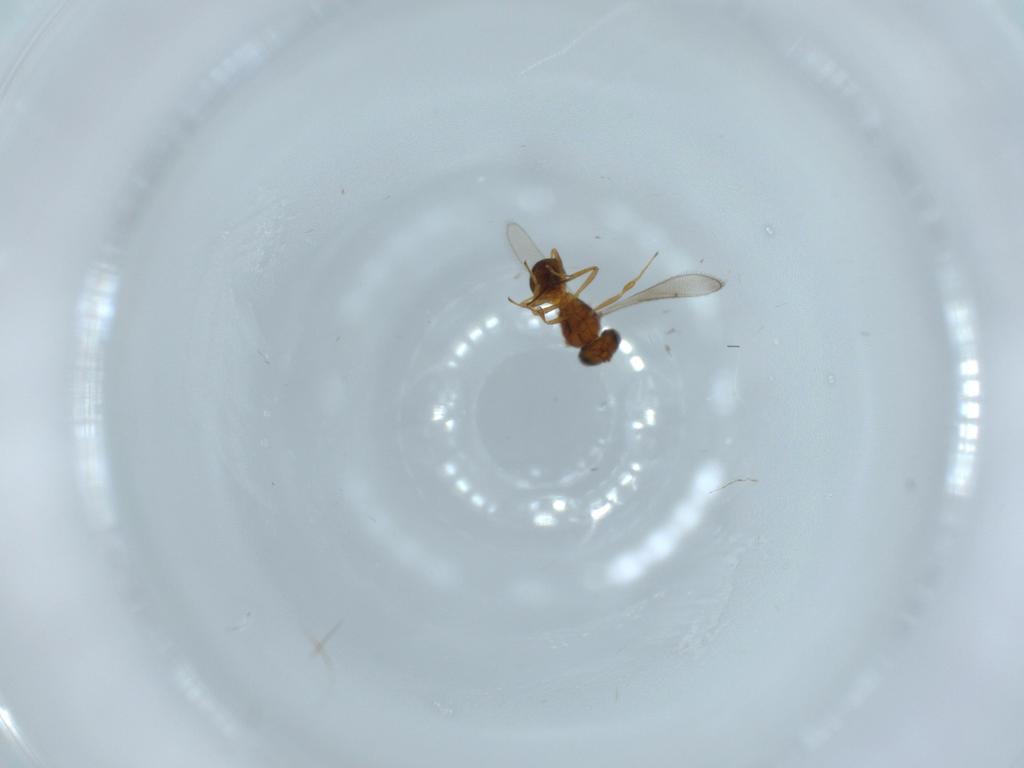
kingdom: Animalia
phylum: Arthropoda
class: Insecta
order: Hymenoptera
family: Scelionidae
